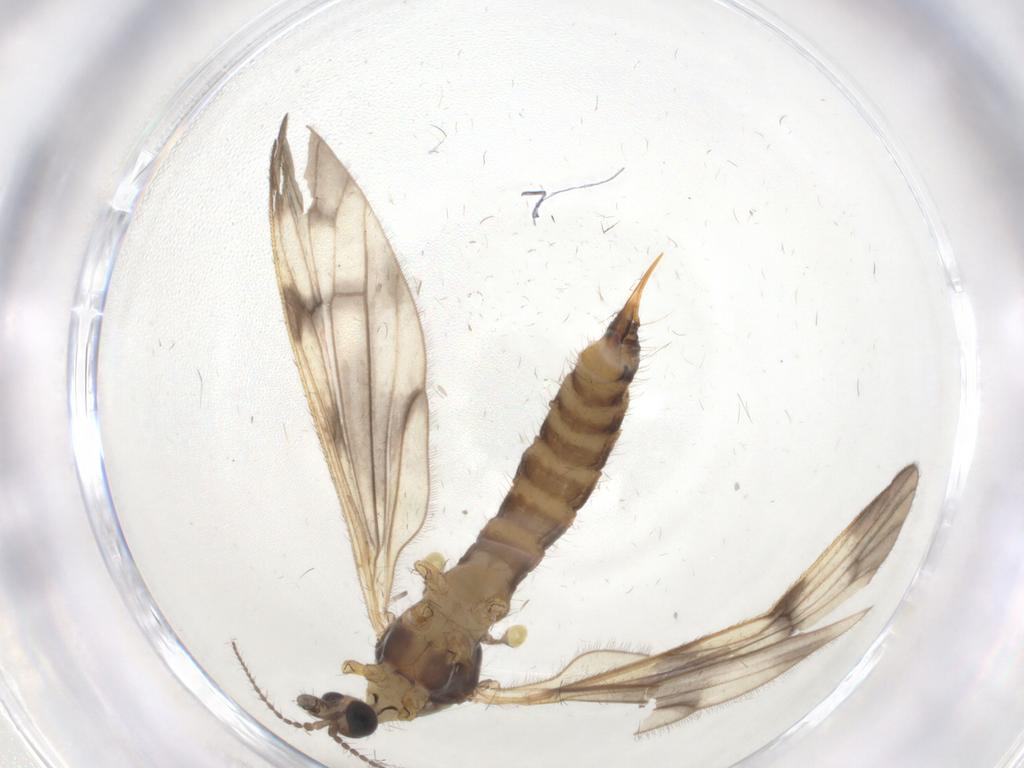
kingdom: Animalia
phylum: Arthropoda
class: Insecta
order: Diptera
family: Limoniidae
